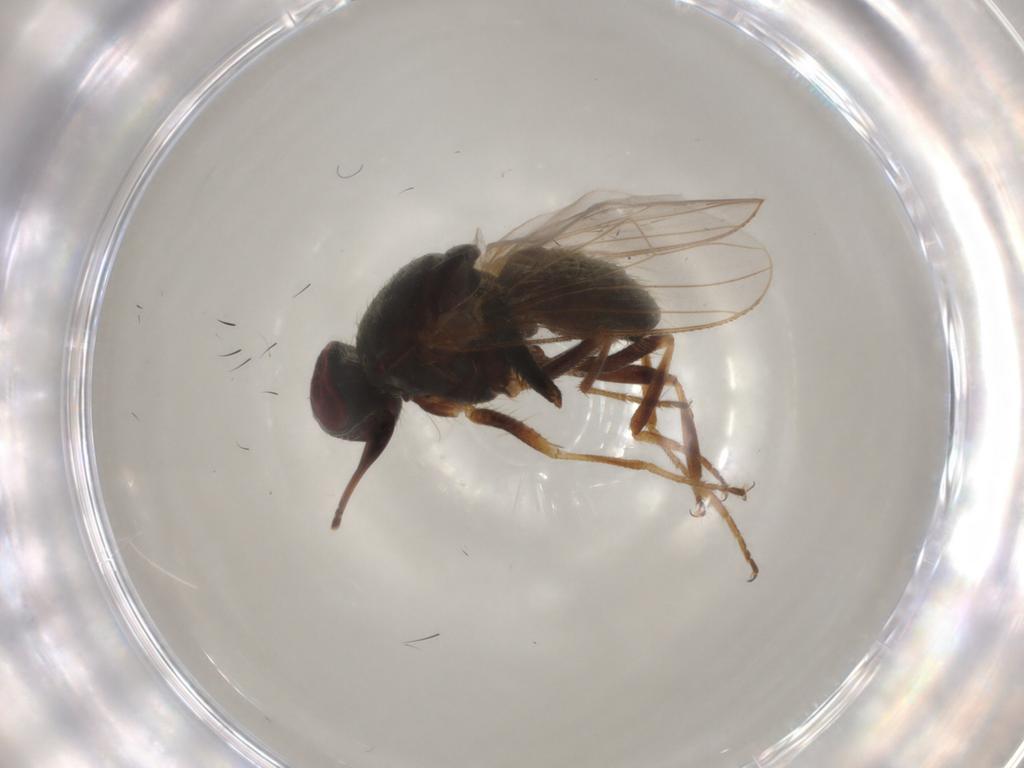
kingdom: Animalia
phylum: Arthropoda
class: Insecta
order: Diptera
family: Muscidae
